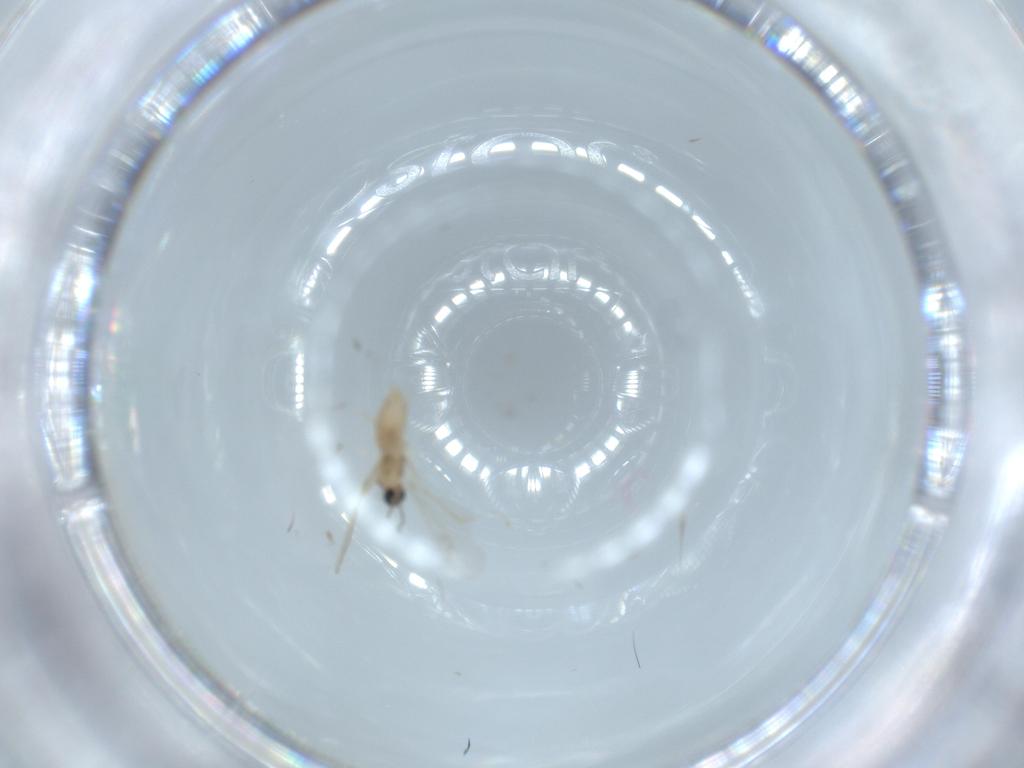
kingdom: Animalia
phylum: Arthropoda
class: Insecta
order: Diptera
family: Cecidomyiidae
